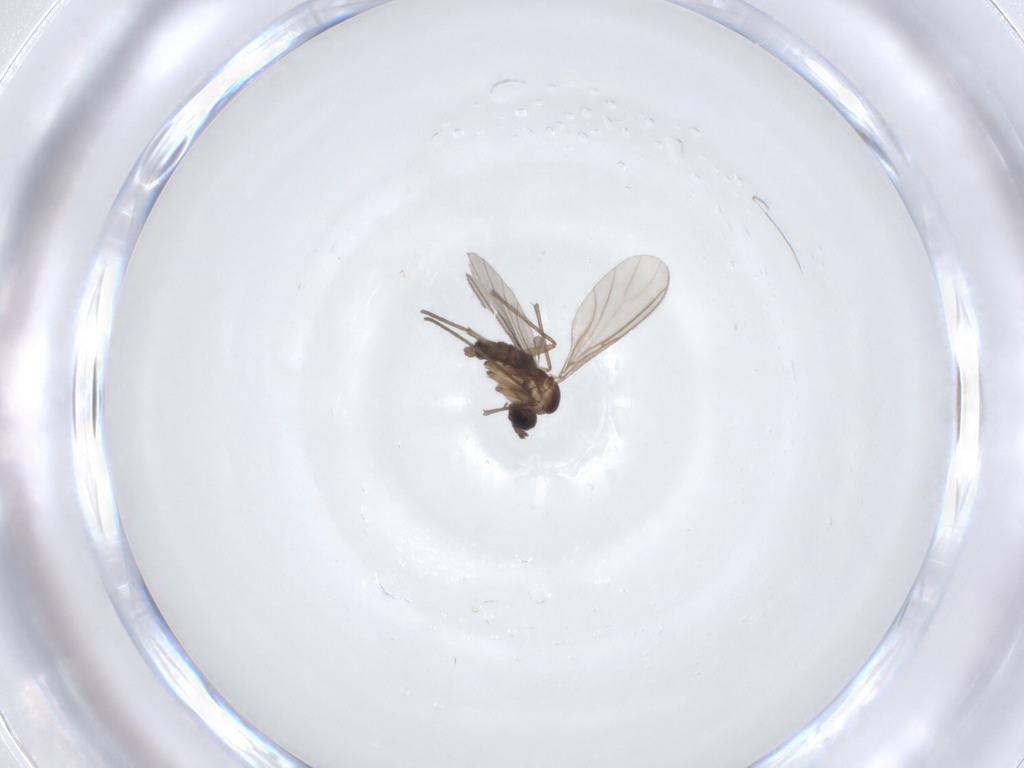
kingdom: Animalia
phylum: Arthropoda
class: Insecta
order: Diptera
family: Sciaridae
